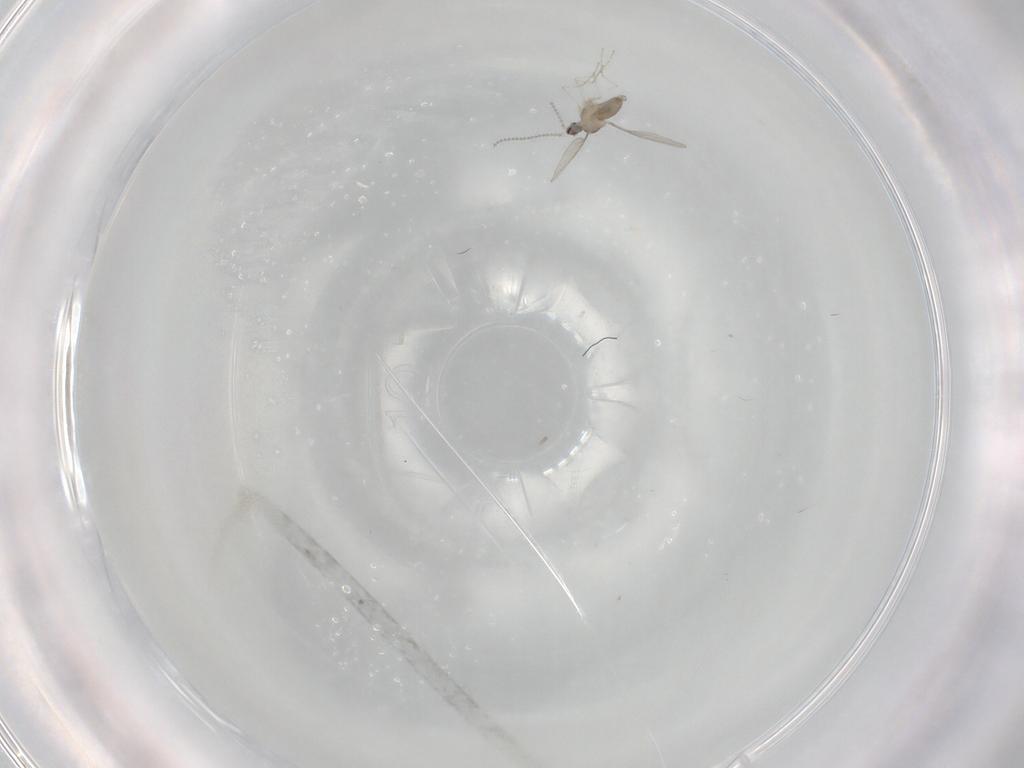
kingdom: Animalia
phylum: Arthropoda
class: Insecta
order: Diptera
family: Cecidomyiidae
